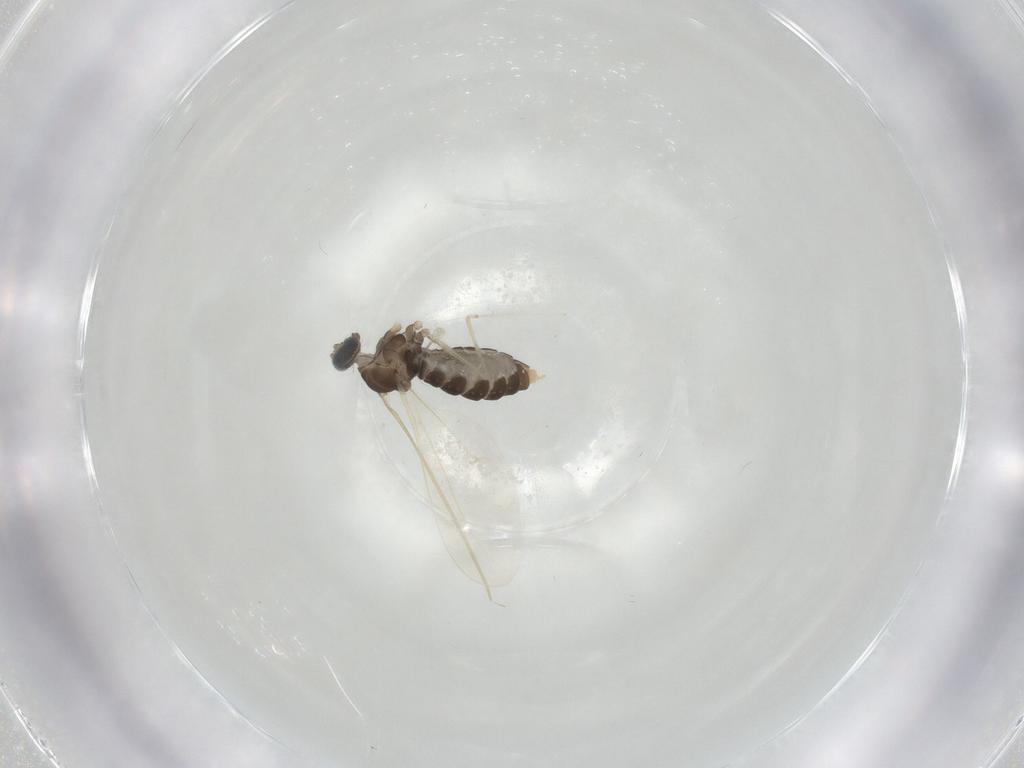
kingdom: Animalia
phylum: Arthropoda
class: Insecta
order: Diptera
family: Cecidomyiidae
